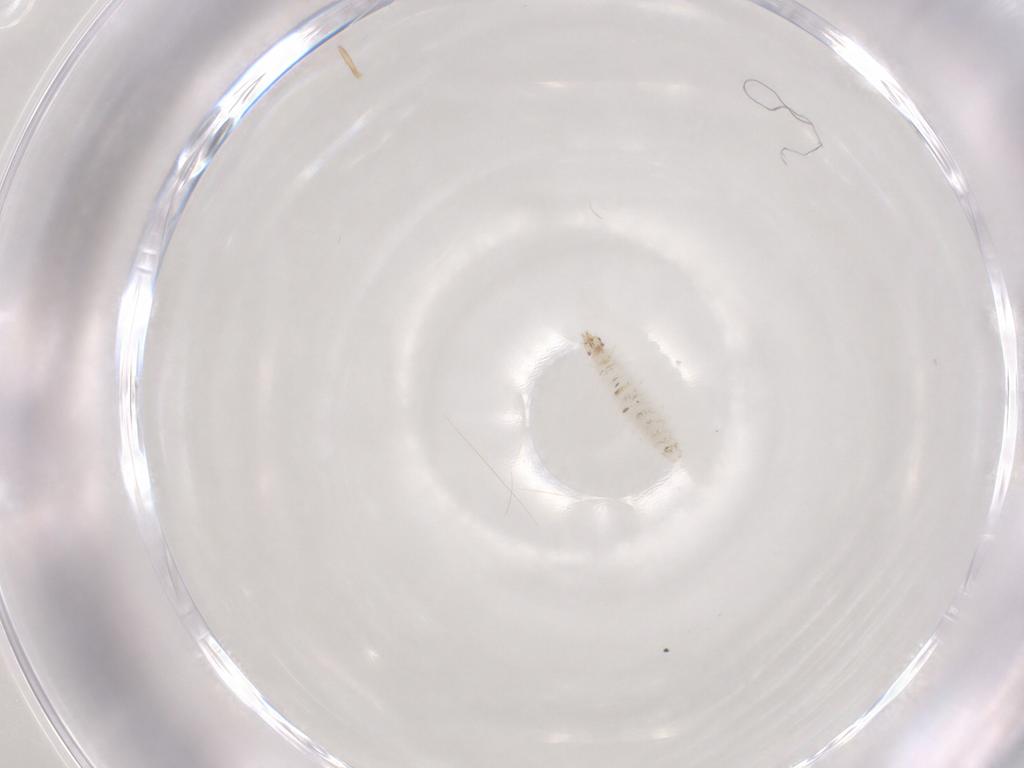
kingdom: Animalia
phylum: Arthropoda
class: Insecta
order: Diptera
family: Stratiomyidae
